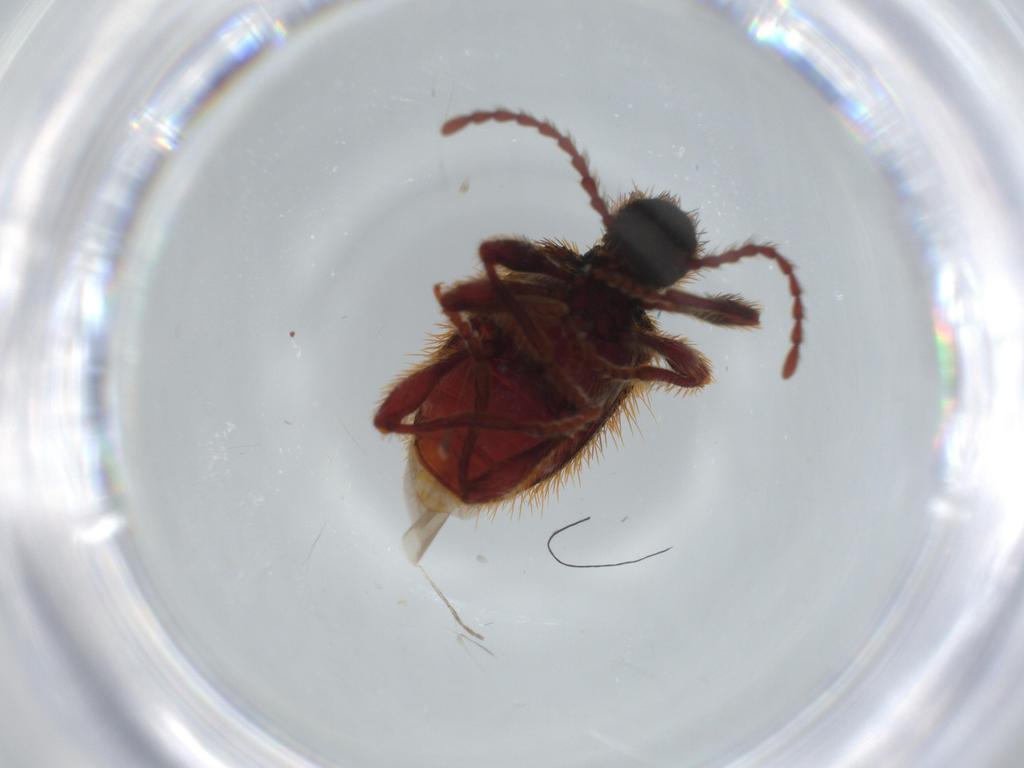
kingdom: Animalia
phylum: Arthropoda
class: Insecta
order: Coleoptera
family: Ptinidae
